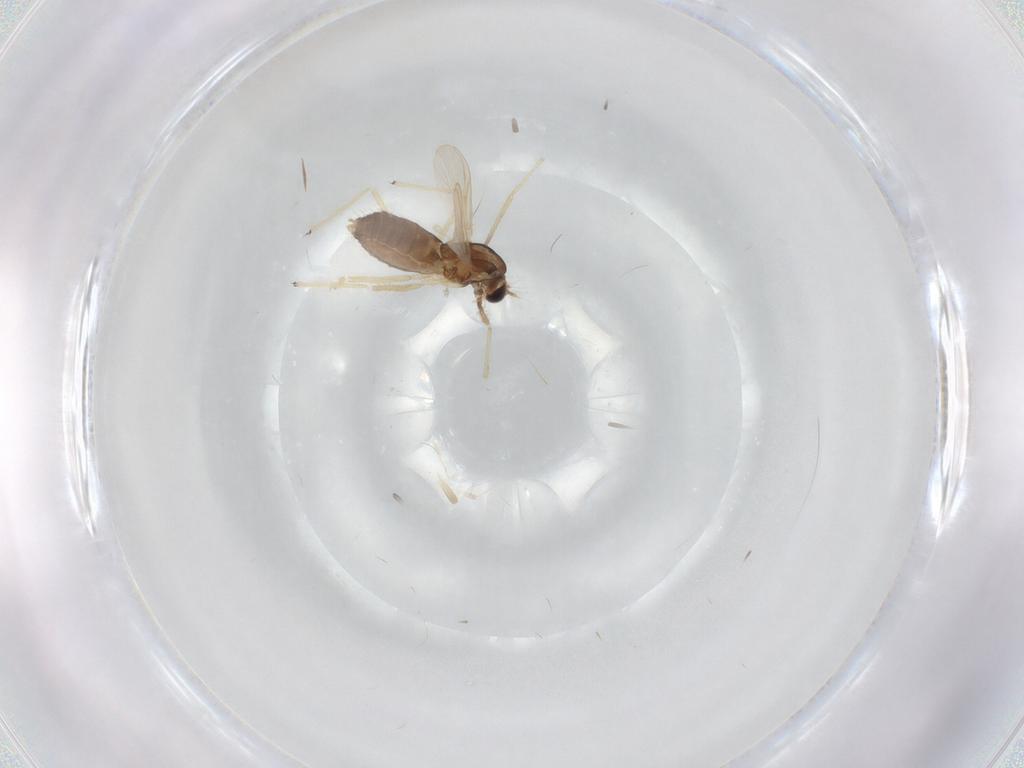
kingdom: Animalia
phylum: Arthropoda
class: Insecta
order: Diptera
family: Chironomidae
